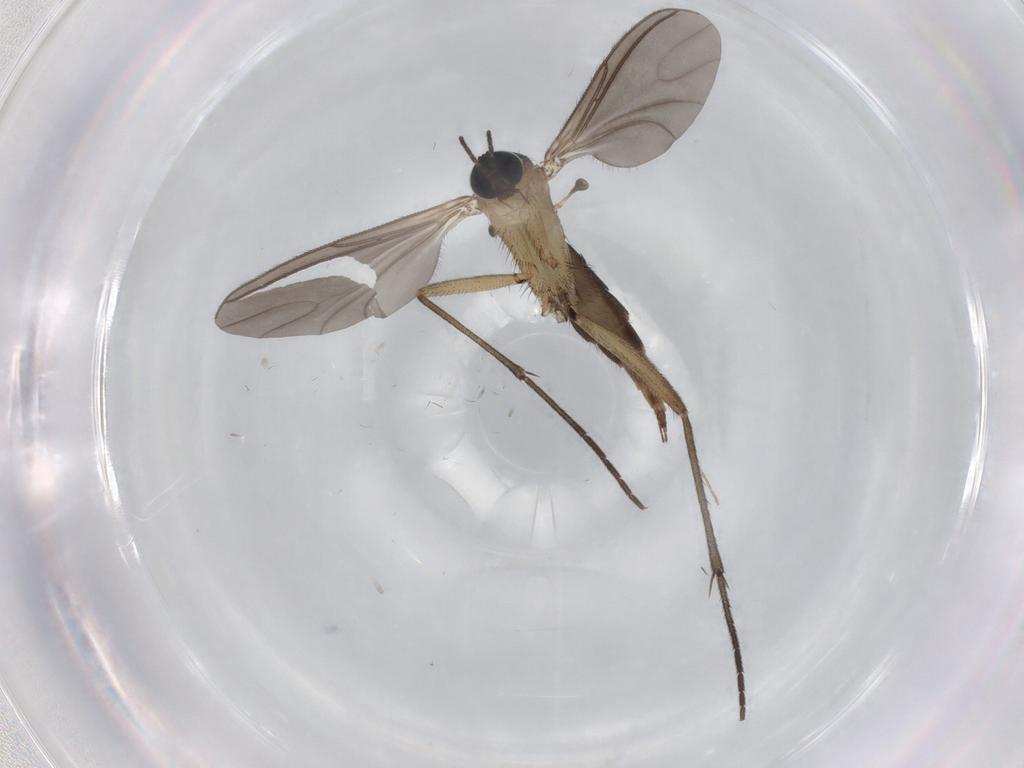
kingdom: Animalia
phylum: Arthropoda
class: Insecta
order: Diptera
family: Sciaridae
